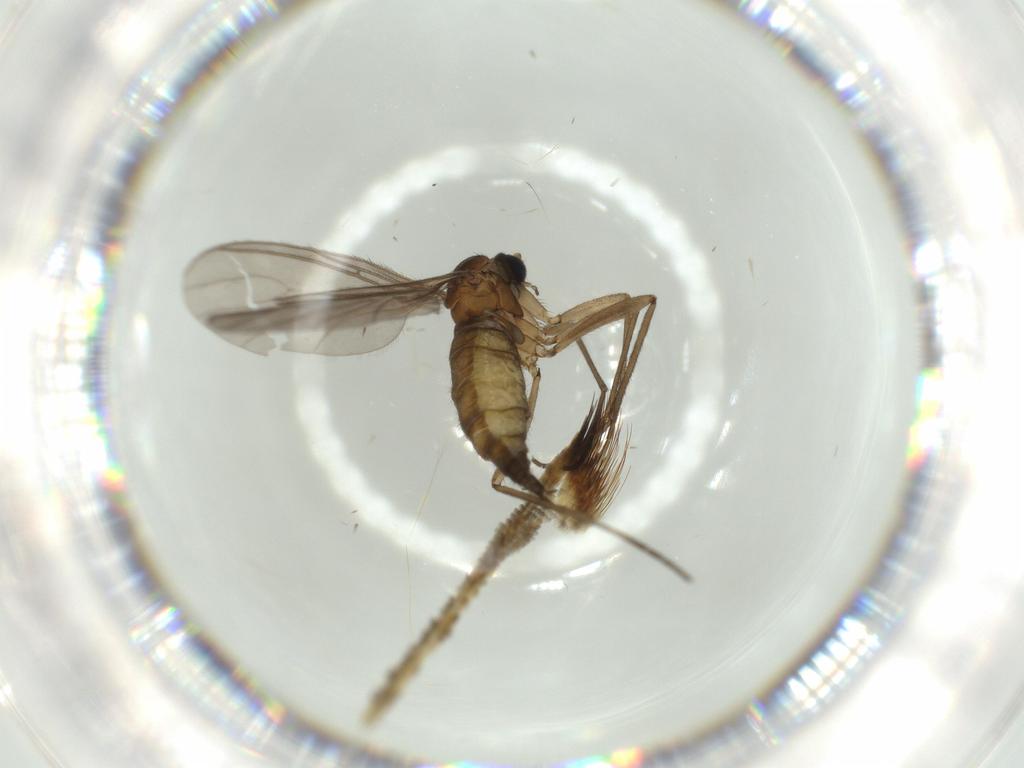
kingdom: Animalia
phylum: Arthropoda
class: Insecta
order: Diptera
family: Sciaridae
